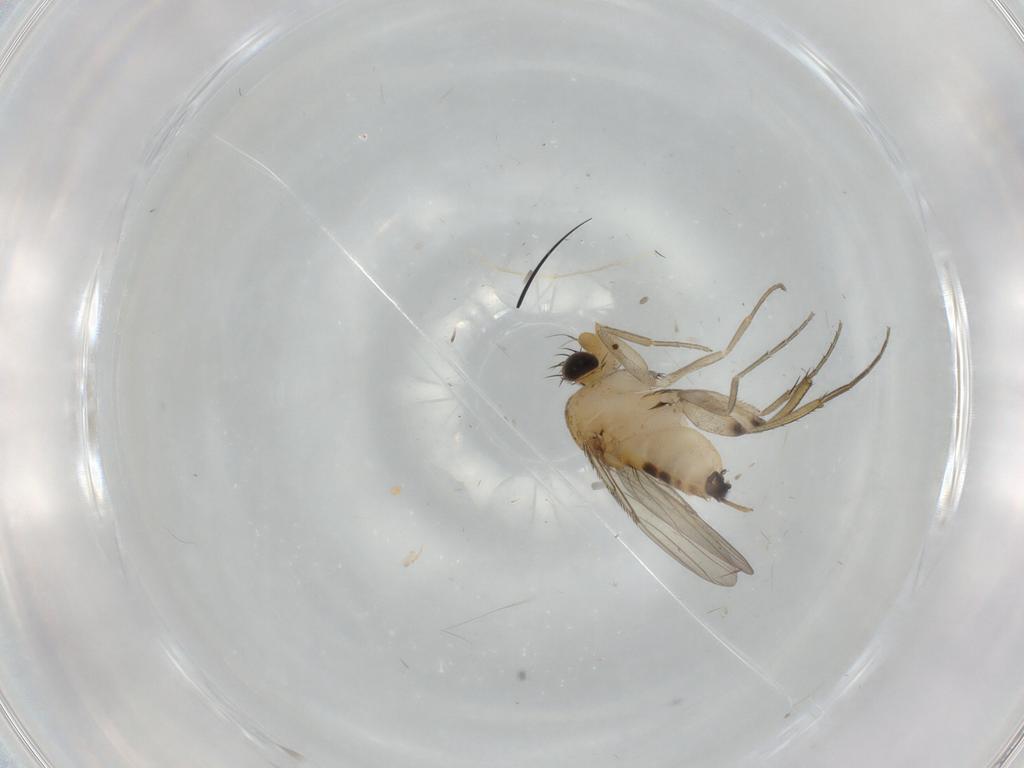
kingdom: Animalia
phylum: Arthropoda
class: Insecta
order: Diptera
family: Phoridae
